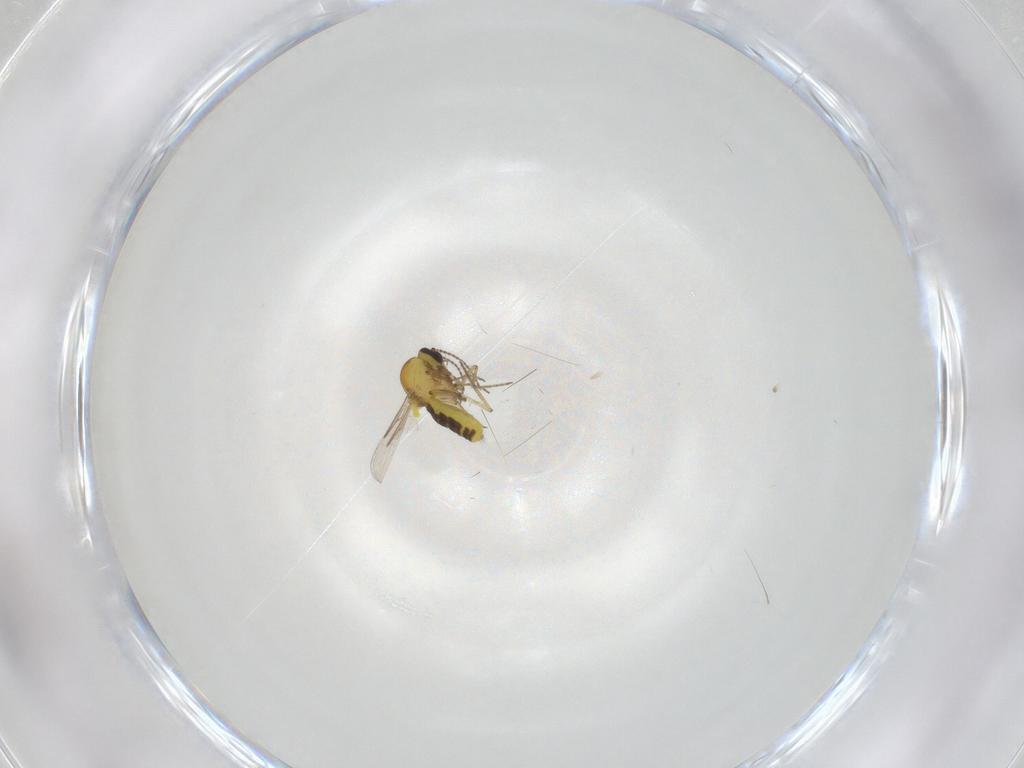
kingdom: Animalia
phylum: Arthropoda
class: Insecta
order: Diptera
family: Ceratopogonidae
